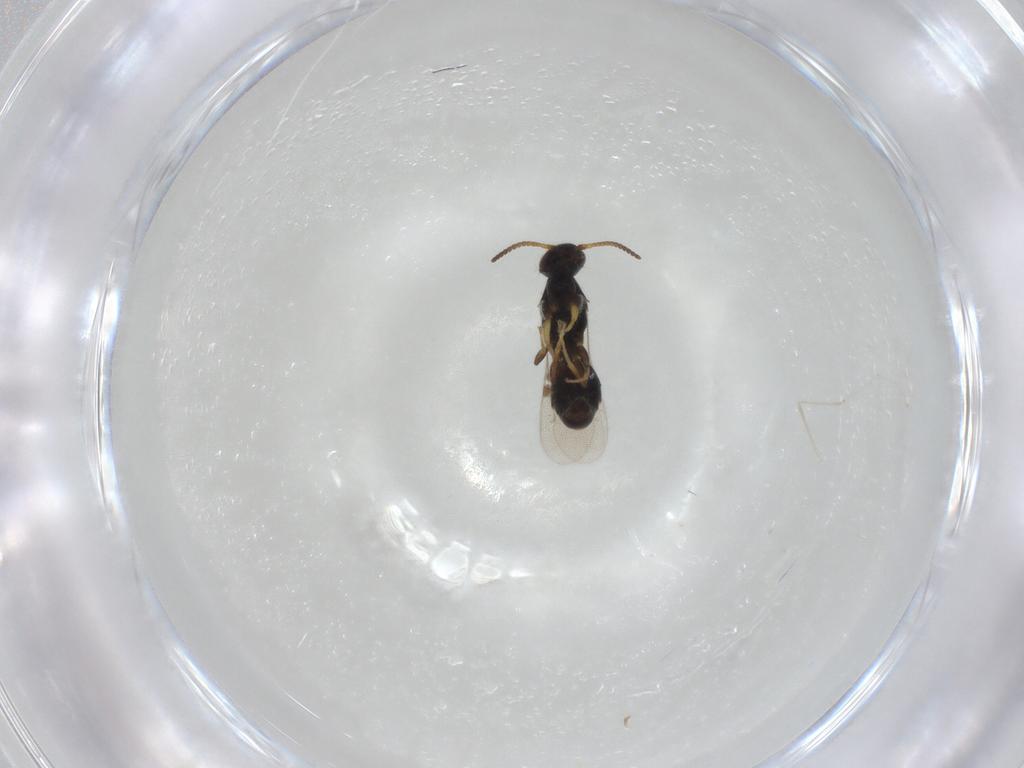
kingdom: Animalia
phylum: Arthropoda
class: Insecta
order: Hymenoptera
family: Bethylidae
